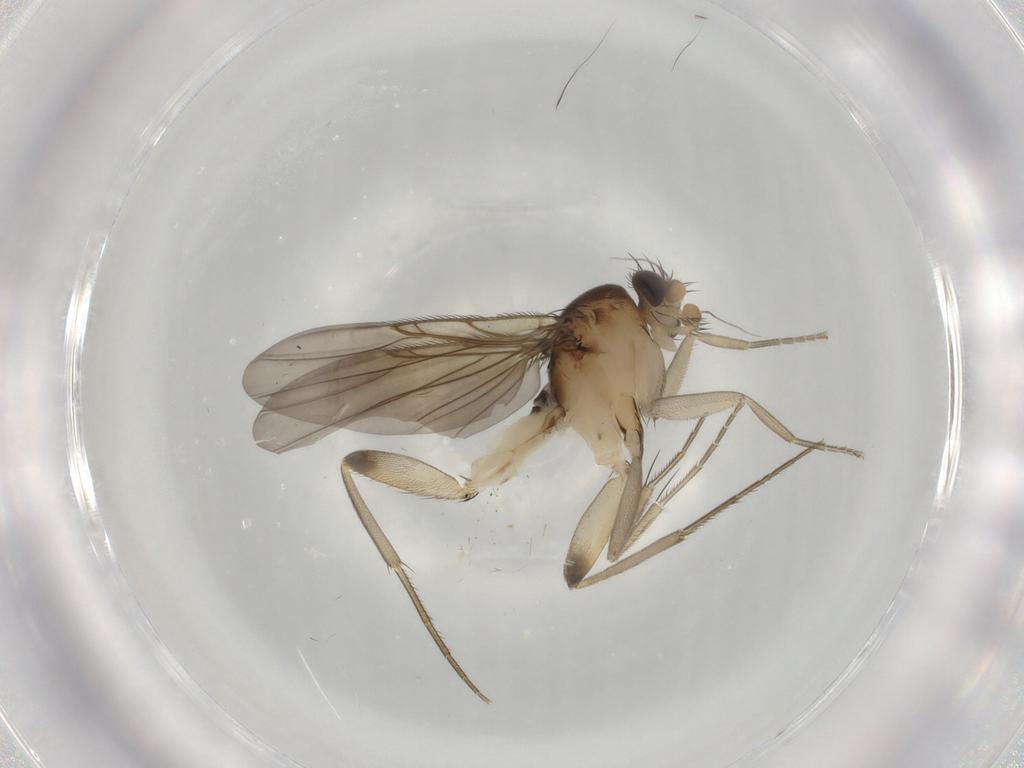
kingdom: Animalia
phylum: Arthropoda
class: Insecta
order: Diptera
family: Phoridae
